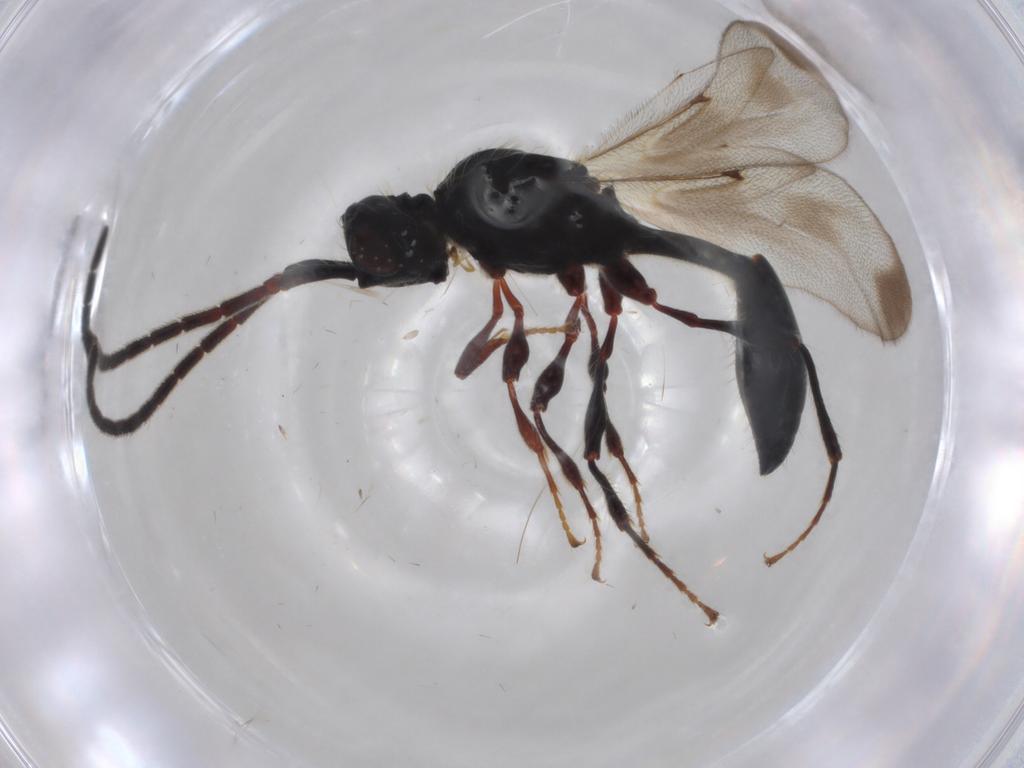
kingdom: Animalia
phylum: Arthropoda
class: Insecta
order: Hymenoptera
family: Diapriidae
